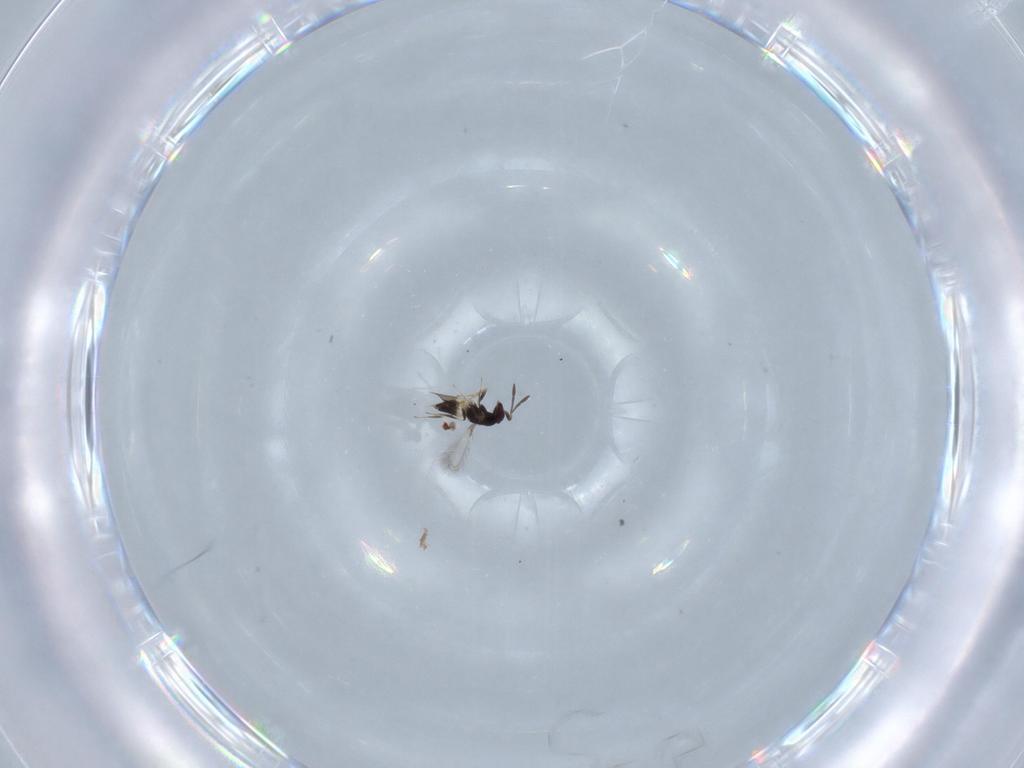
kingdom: Animalia
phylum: Arthropoda
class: Insecta
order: Hymenoptera
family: Mymaridae
